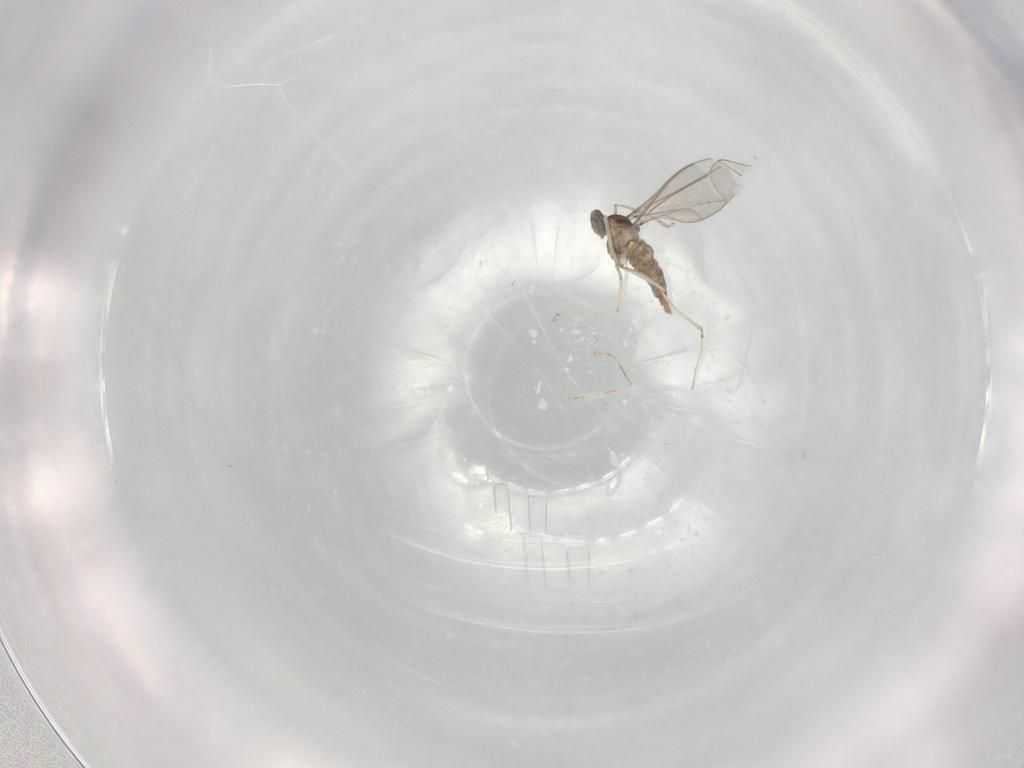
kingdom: Animalia
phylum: Arthropoda
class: Insecta
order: Diptera
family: Cecidomyiidae
